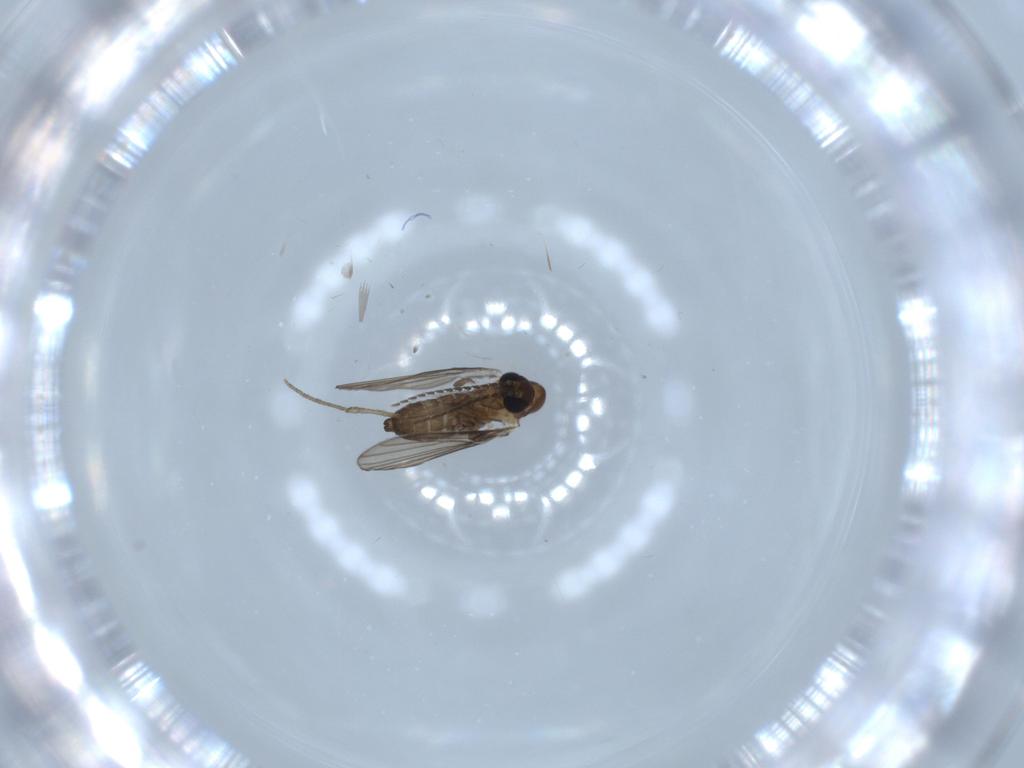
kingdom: Animalia
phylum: Arthropoda
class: Insecta
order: Diptera
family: Psychodidae
